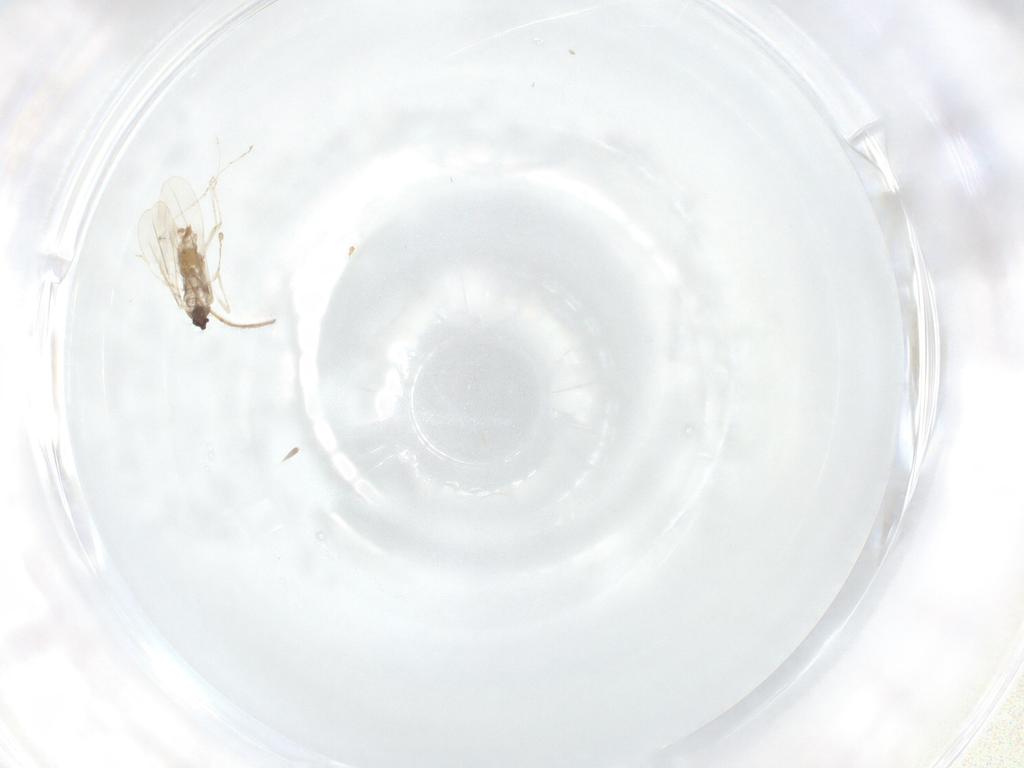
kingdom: Animalia
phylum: Arthropoda
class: Insecta
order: Diptera
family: Cecidomyiidae
